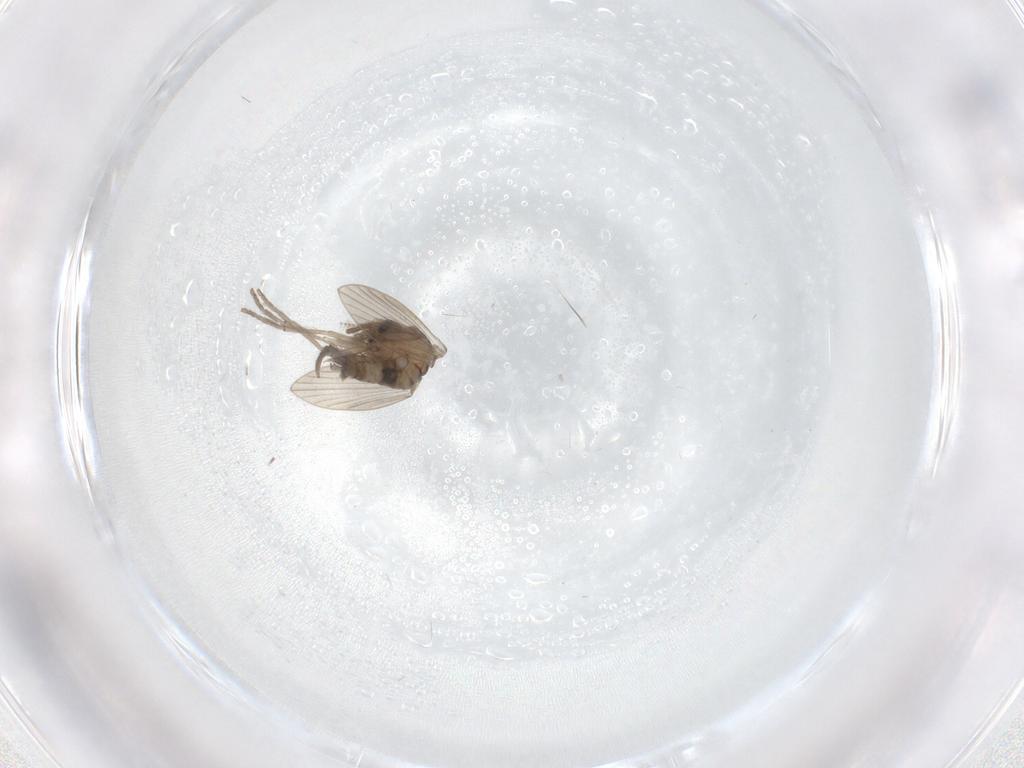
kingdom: Animalia
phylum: Arthropoda
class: Insecta
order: Diptera
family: Psychodidae
